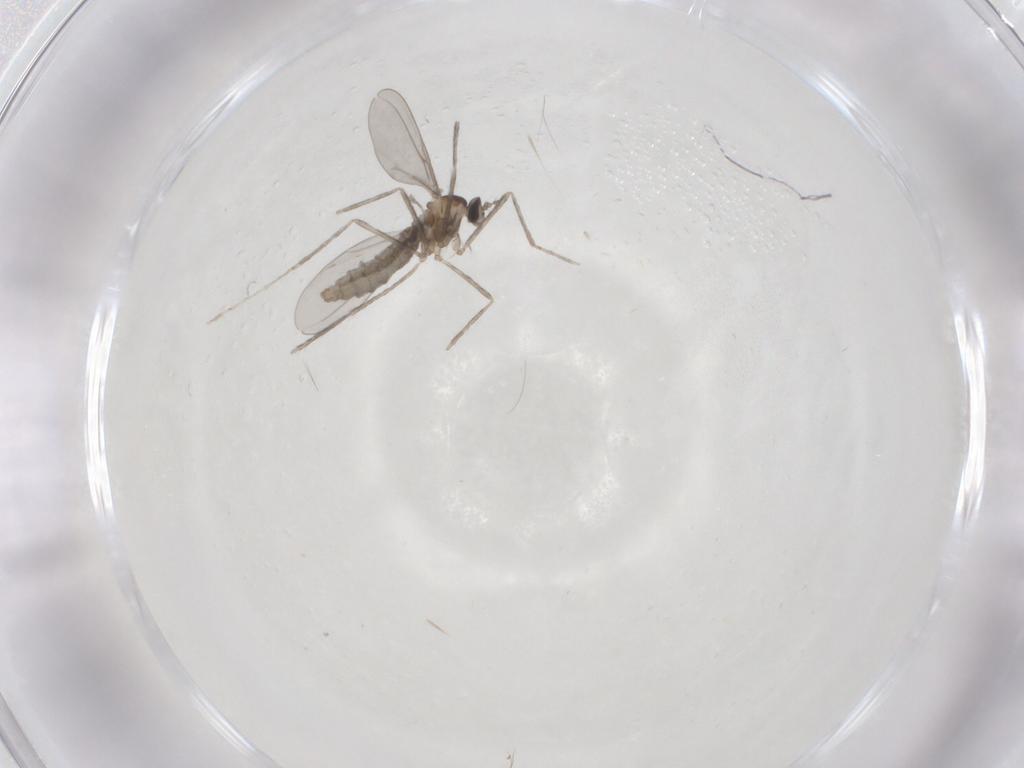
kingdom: Animalia
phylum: Arthropoda
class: Insecta
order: Diptera
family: Cecidomyiidae
